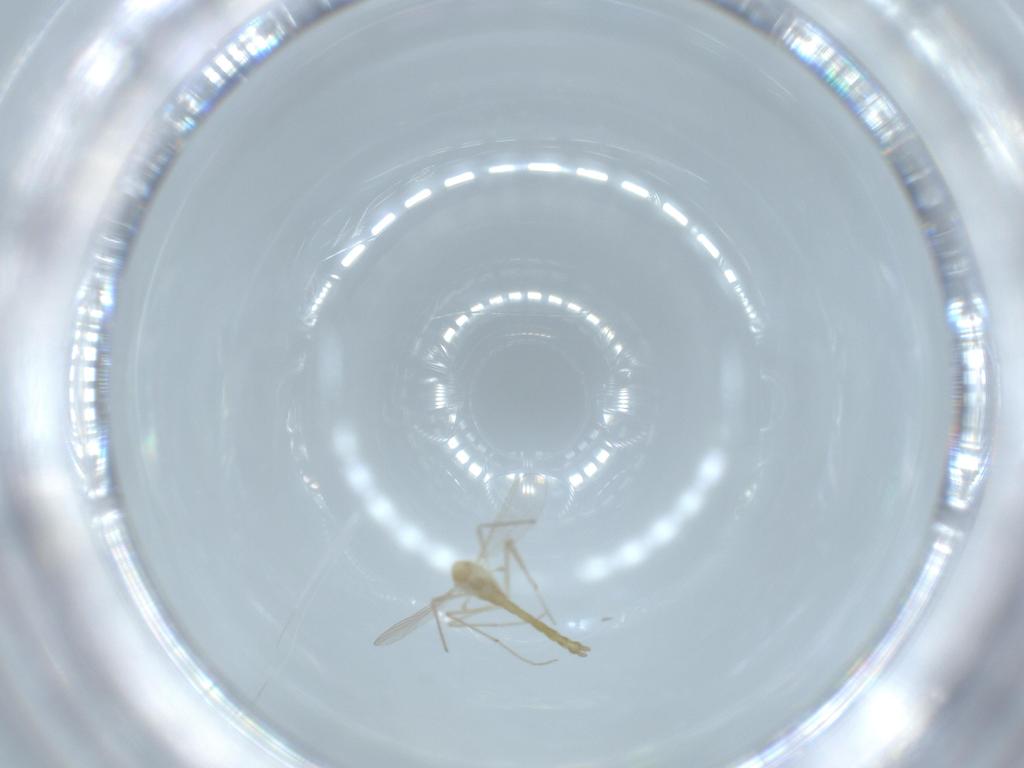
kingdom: Animalia
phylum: Arthropoda
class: Insecta
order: Diptera
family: Chironomidae
